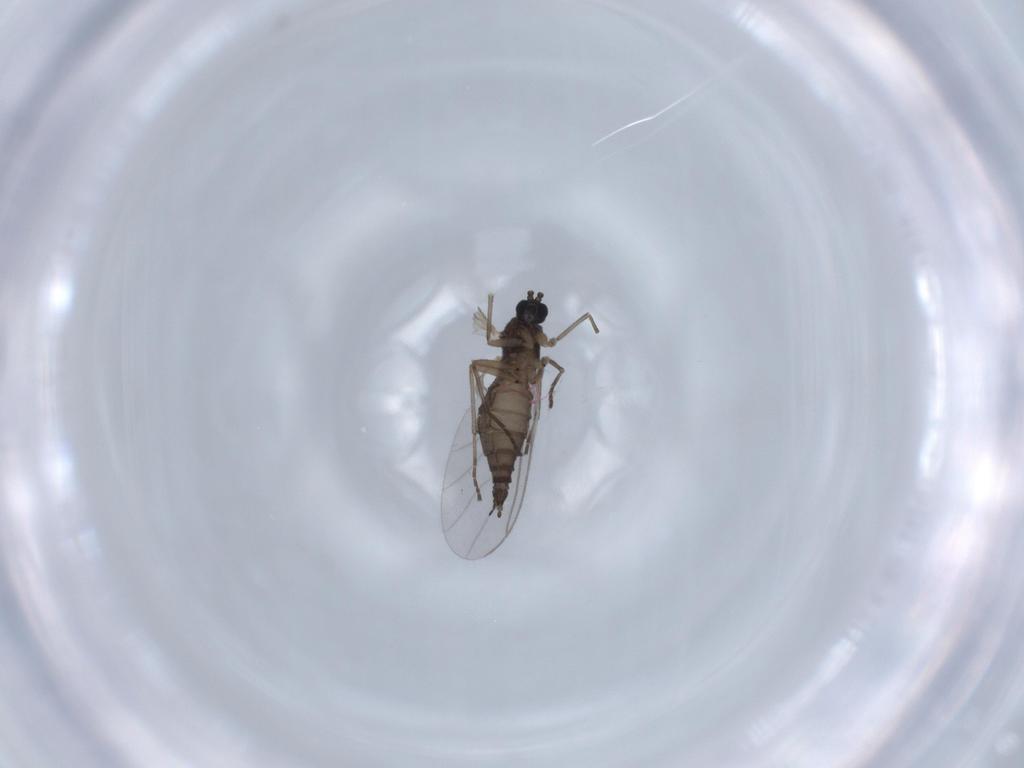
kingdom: Animalia
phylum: Arthropoda
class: Insecta
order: Diptera
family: Chironomidae
